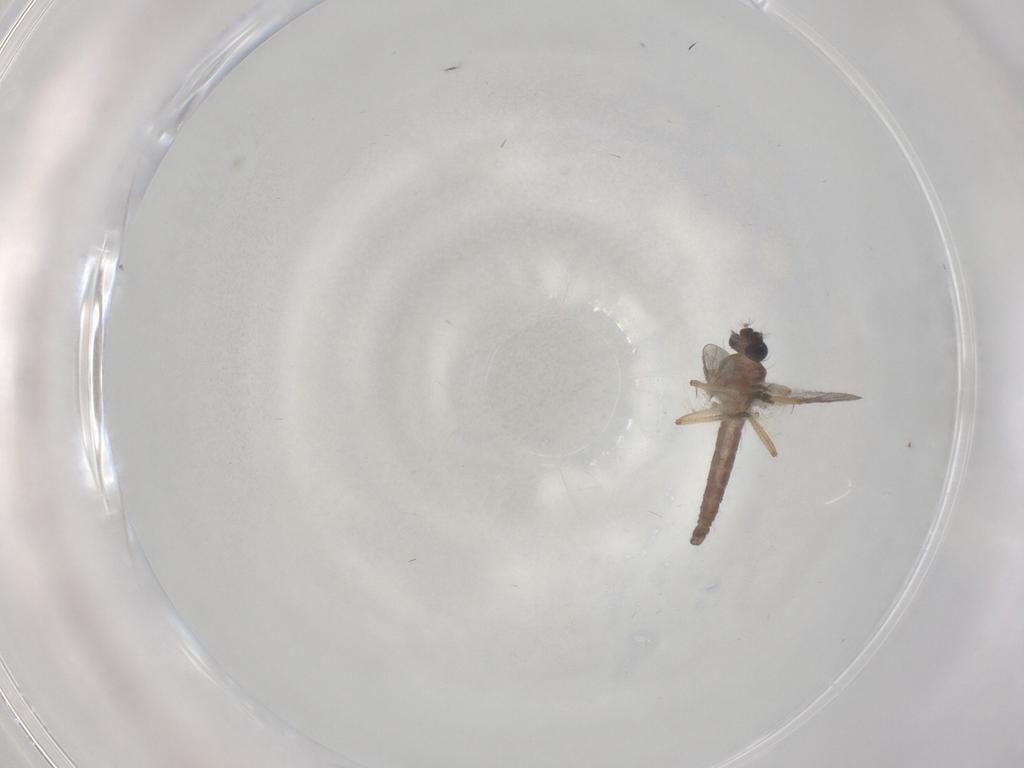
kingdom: Animalia
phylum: Arthropoda
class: Insecta
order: Diptera
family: Ceratopogonidae
